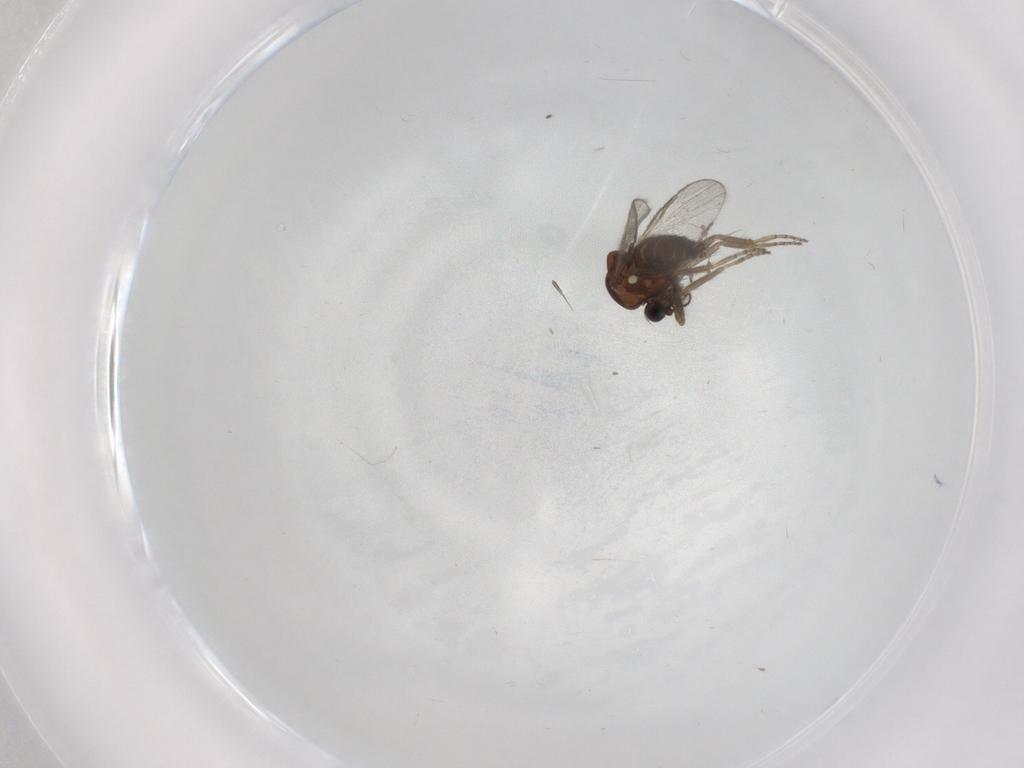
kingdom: Animalia
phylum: Arthropoda
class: Insecta
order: Diptera
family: Ceratopogonidae
